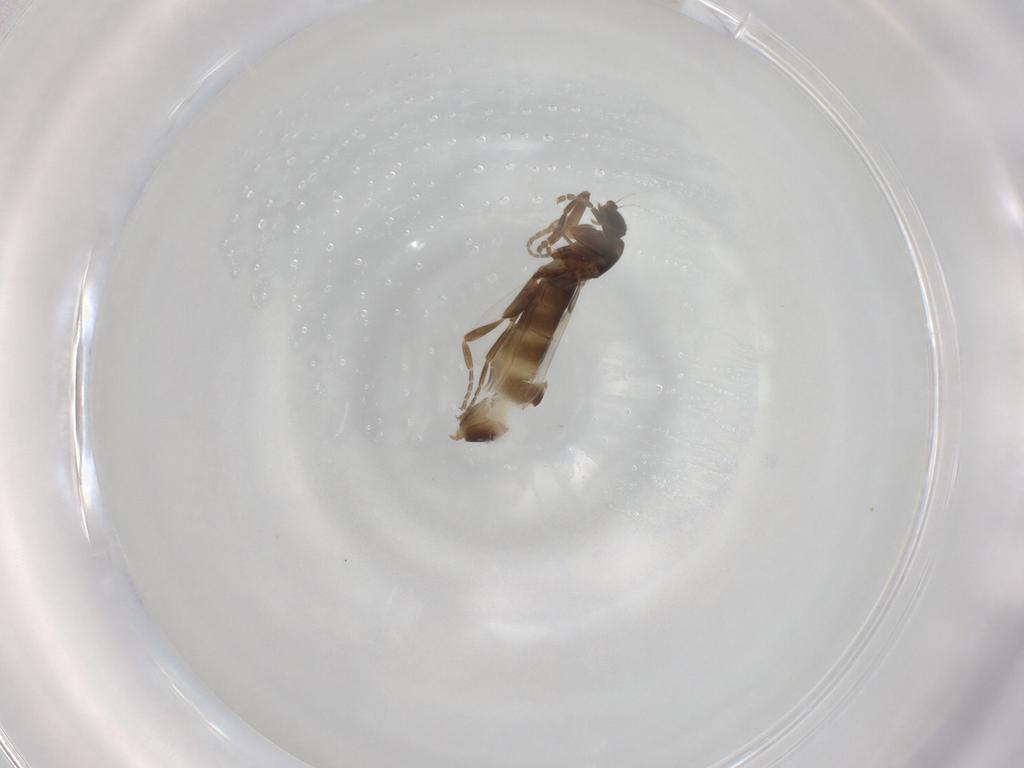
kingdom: Animalia
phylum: Arthropoda
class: Insecta
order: Diptera
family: Phoridae
